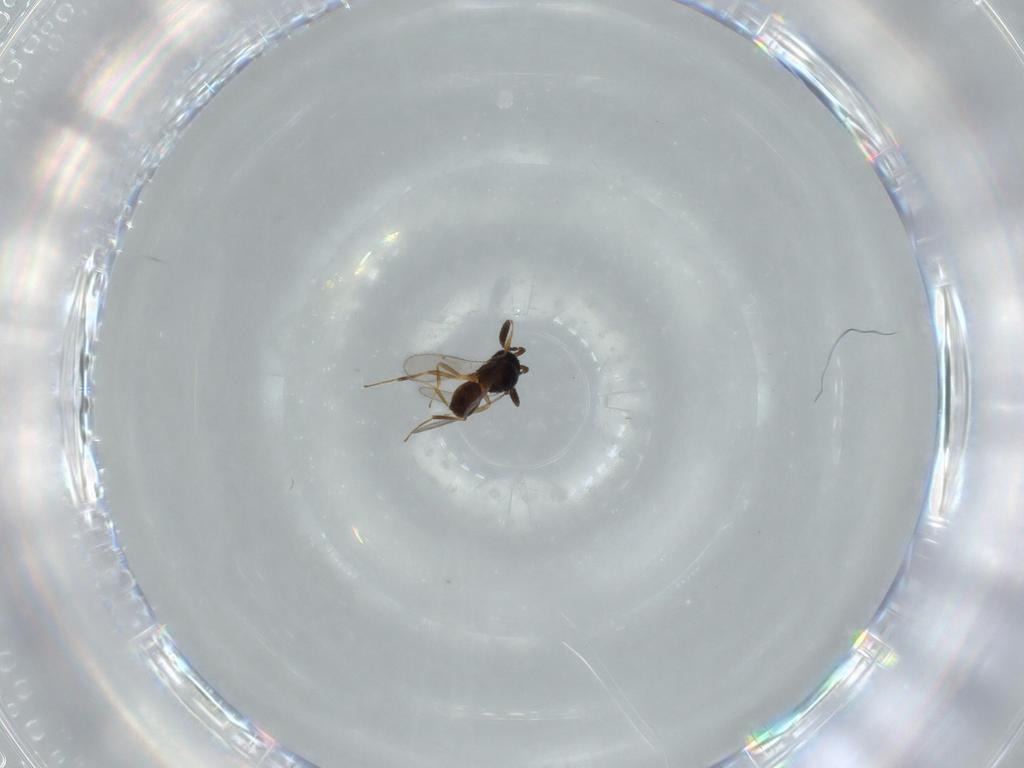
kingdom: Animalia
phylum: Arthropoda
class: Insecta
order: Hymenoptera
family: Scelionidae
